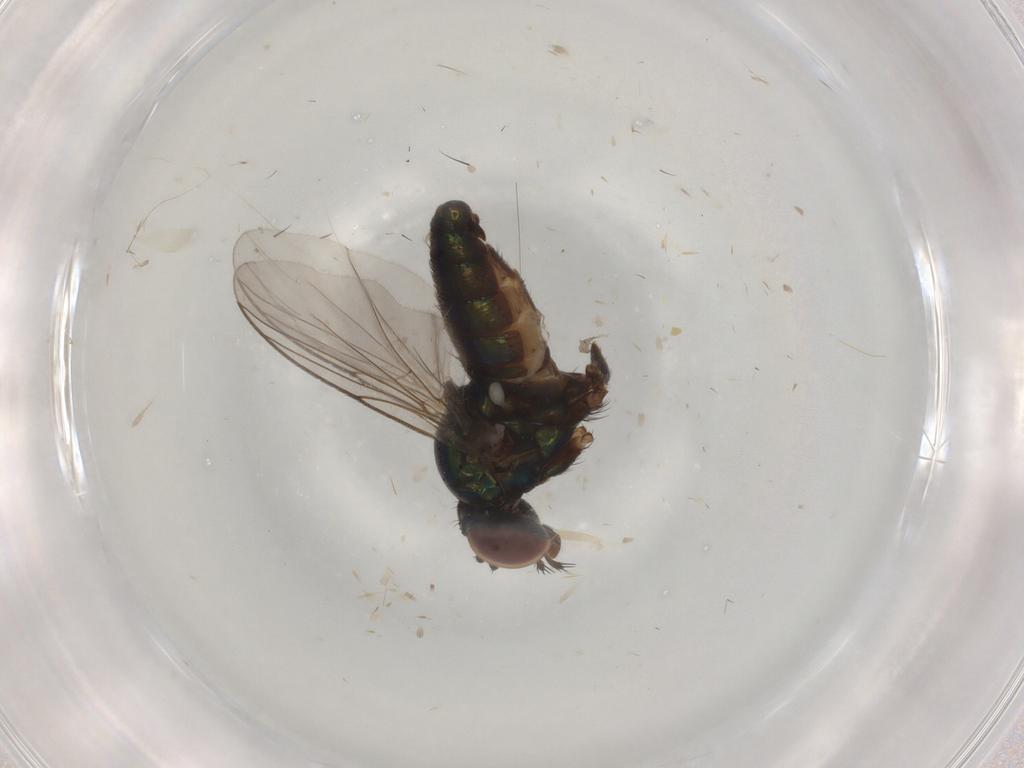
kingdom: Animalia
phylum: Arthropoda
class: Insecta
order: Diptera
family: Dolichopodidae
